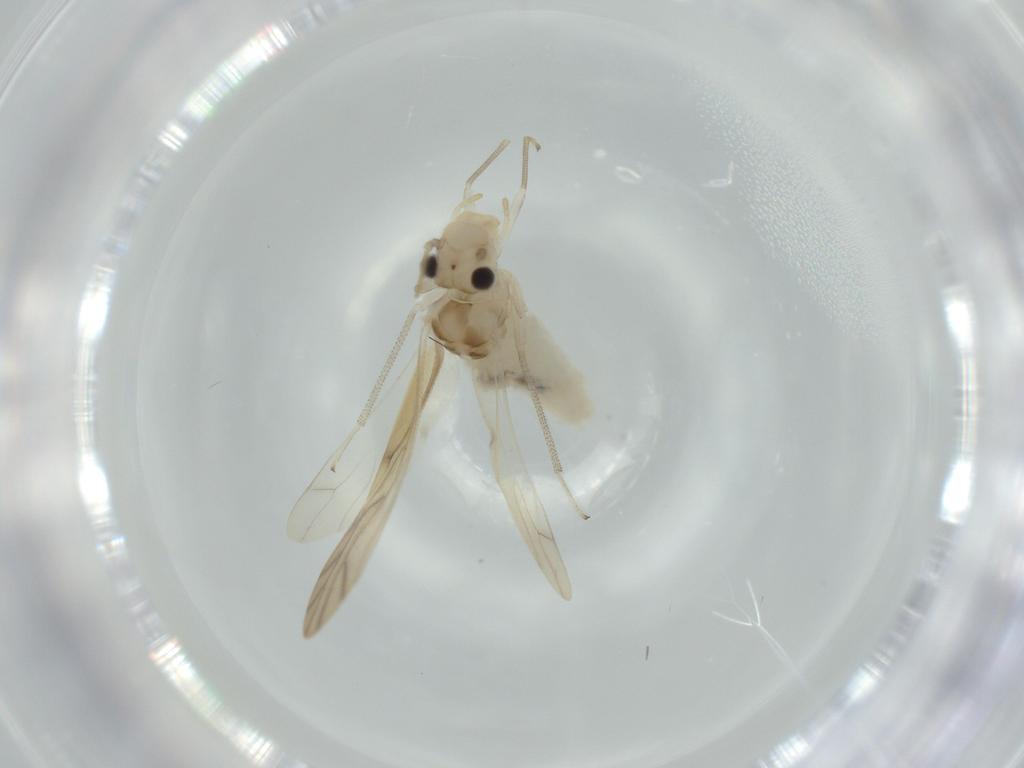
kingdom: Animalia
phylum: Arthropoda
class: Insecta
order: Psocodea
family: Caeciliusidae
